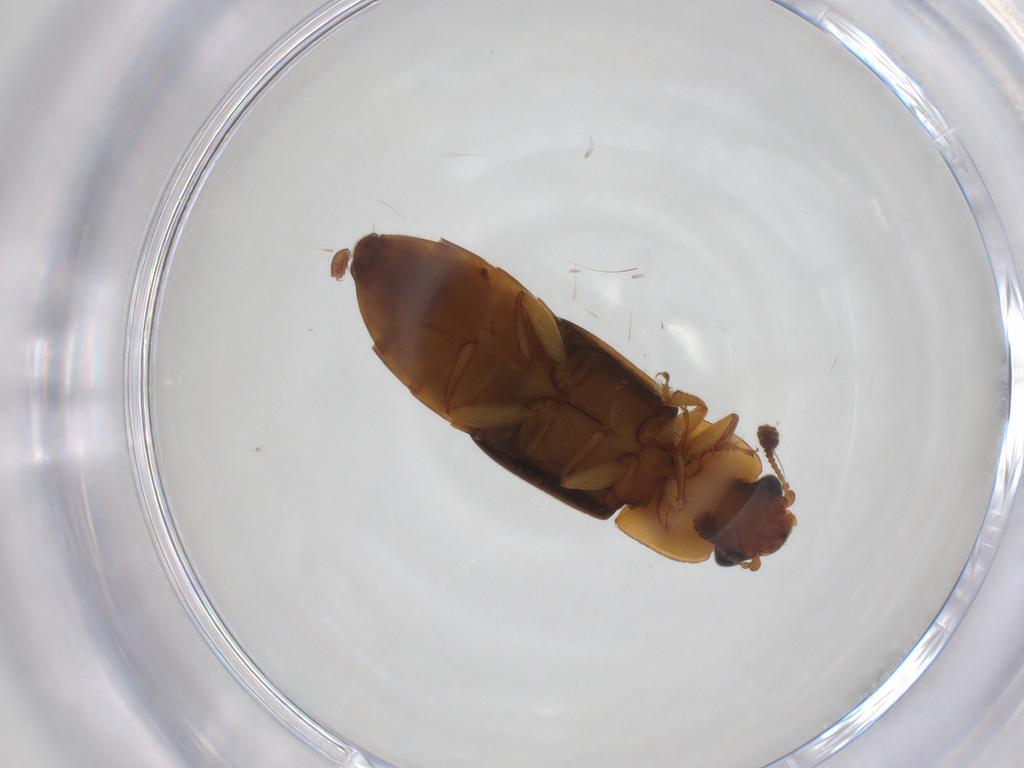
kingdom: Animalia
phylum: Arthropoda
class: Insecta
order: Coleoptera
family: Nitidulidae
